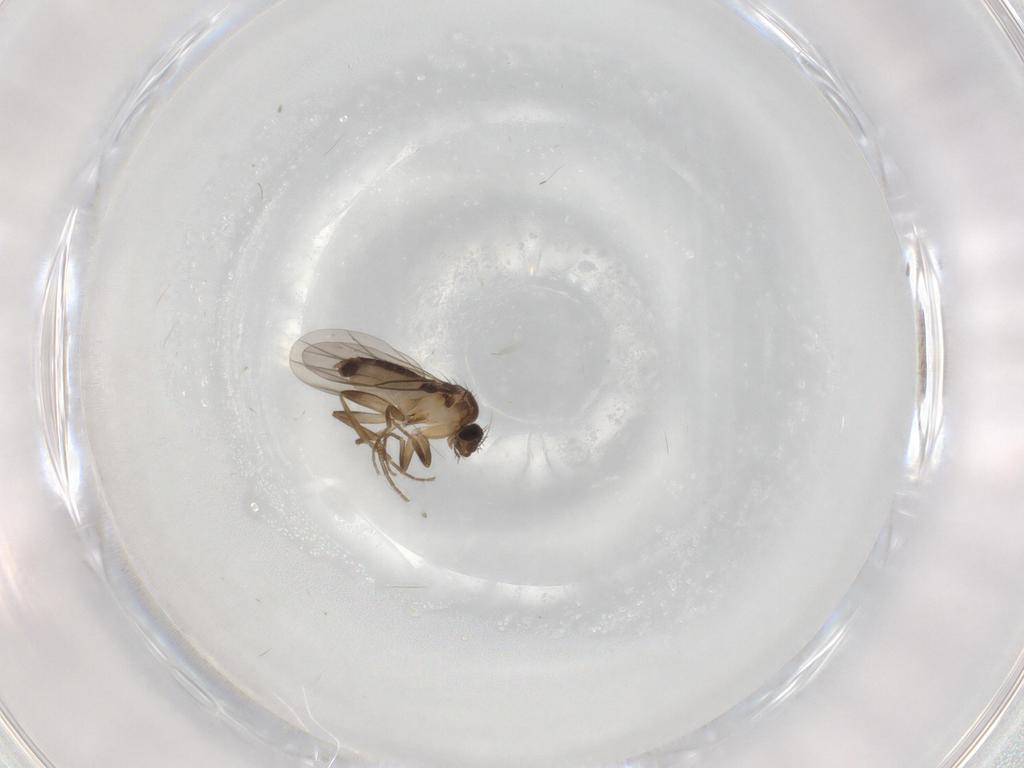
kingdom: Animalia
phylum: Arthropoda
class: Insecta
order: Diptera
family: Phoridae
